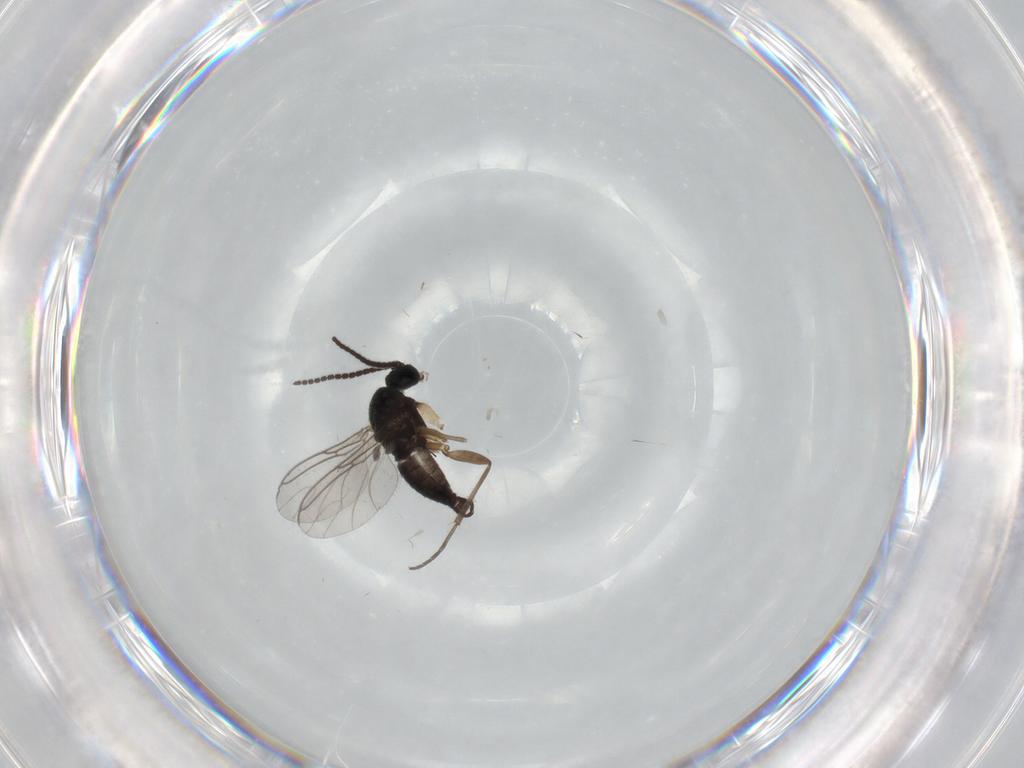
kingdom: Animalia
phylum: Arthropoda
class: Insecta
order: Diptera
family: Sciaridae
